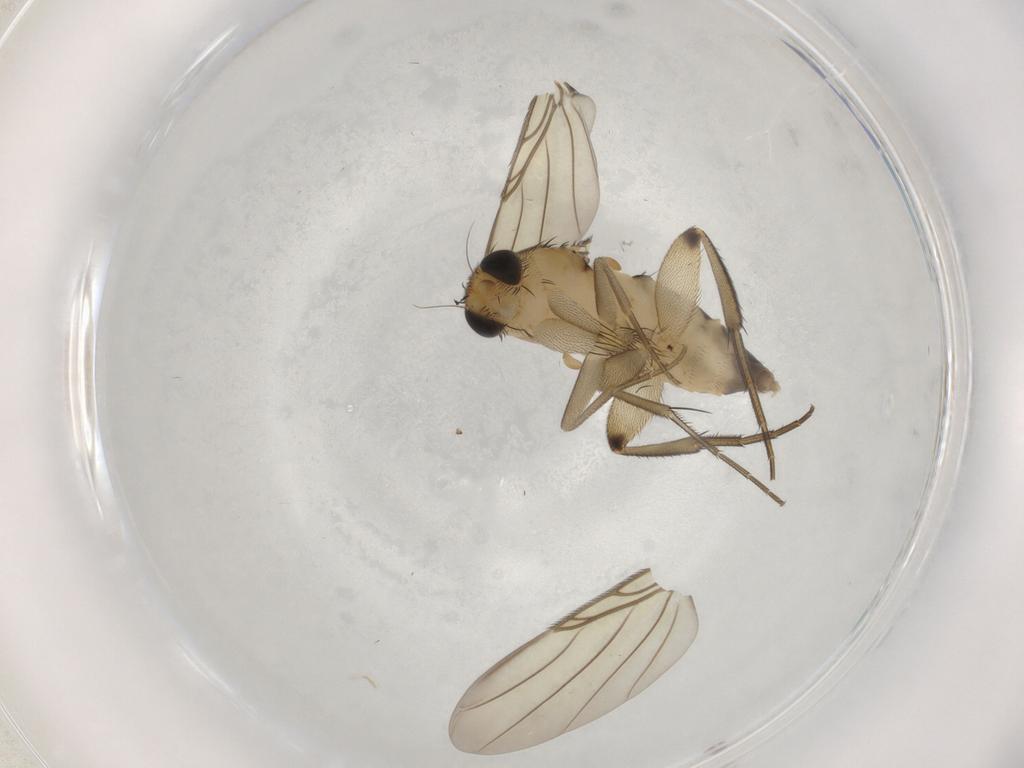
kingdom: Animalia
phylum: Arthropoda
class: Insecta
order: Diptera
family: Phoridae
